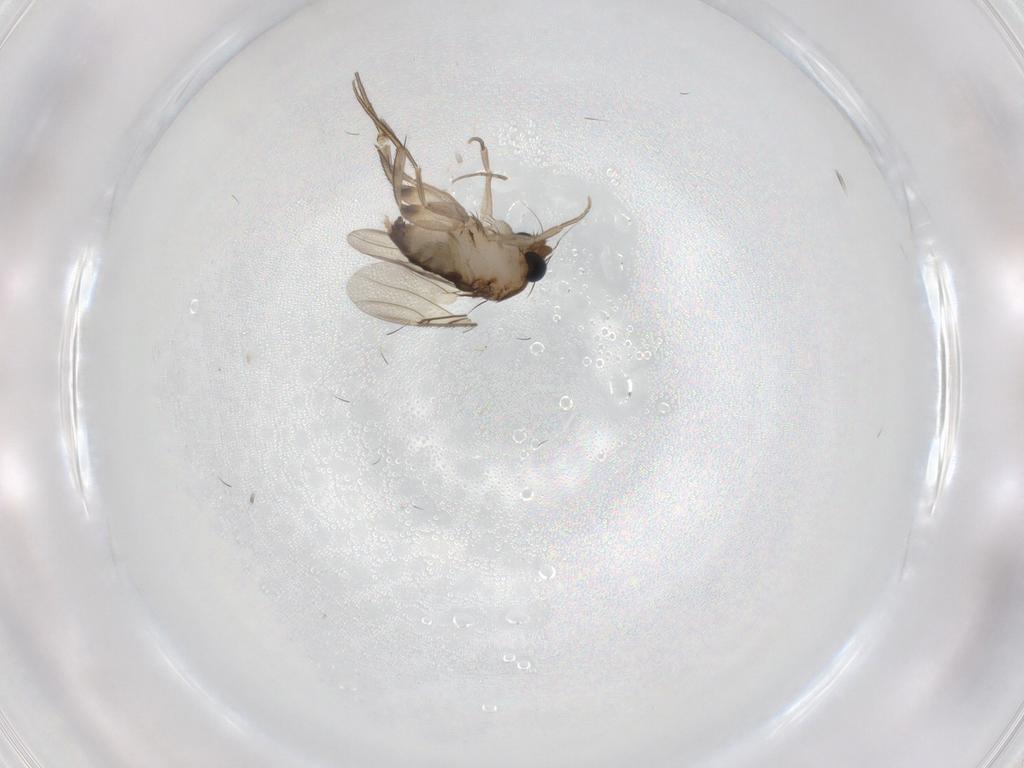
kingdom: Animalia
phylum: Arthropoda
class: Insecta
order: Diptera
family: Phoridae
